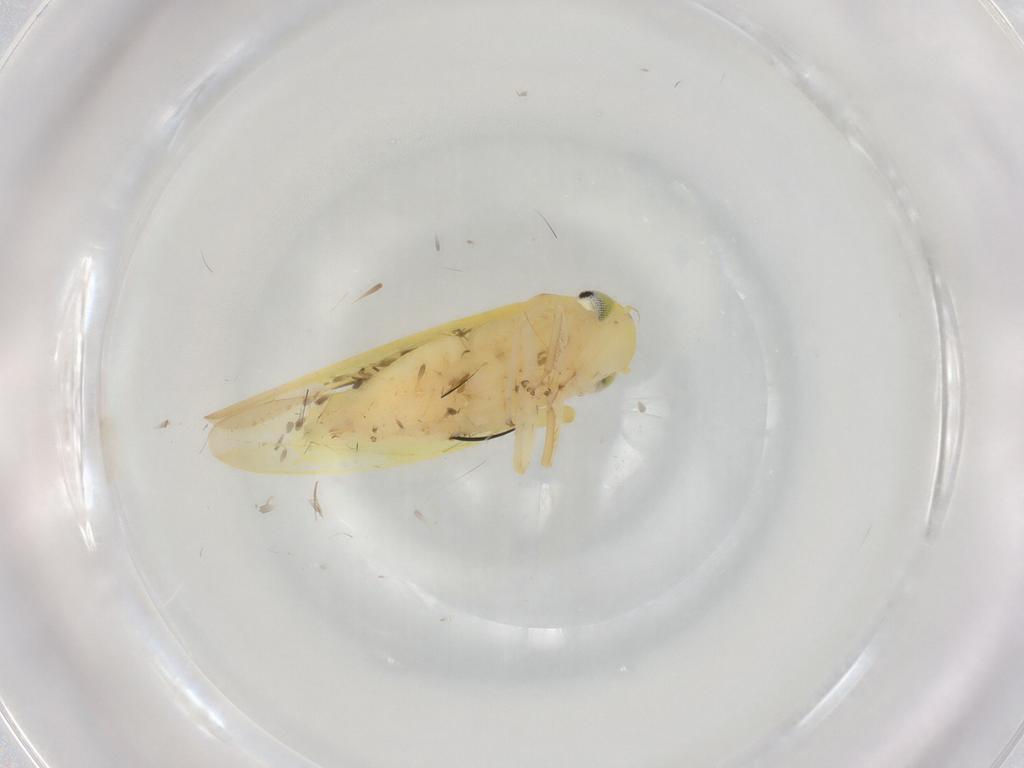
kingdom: Animalia
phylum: Arthropoda
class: Insecta
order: Hemiptera
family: Cicadellidae
